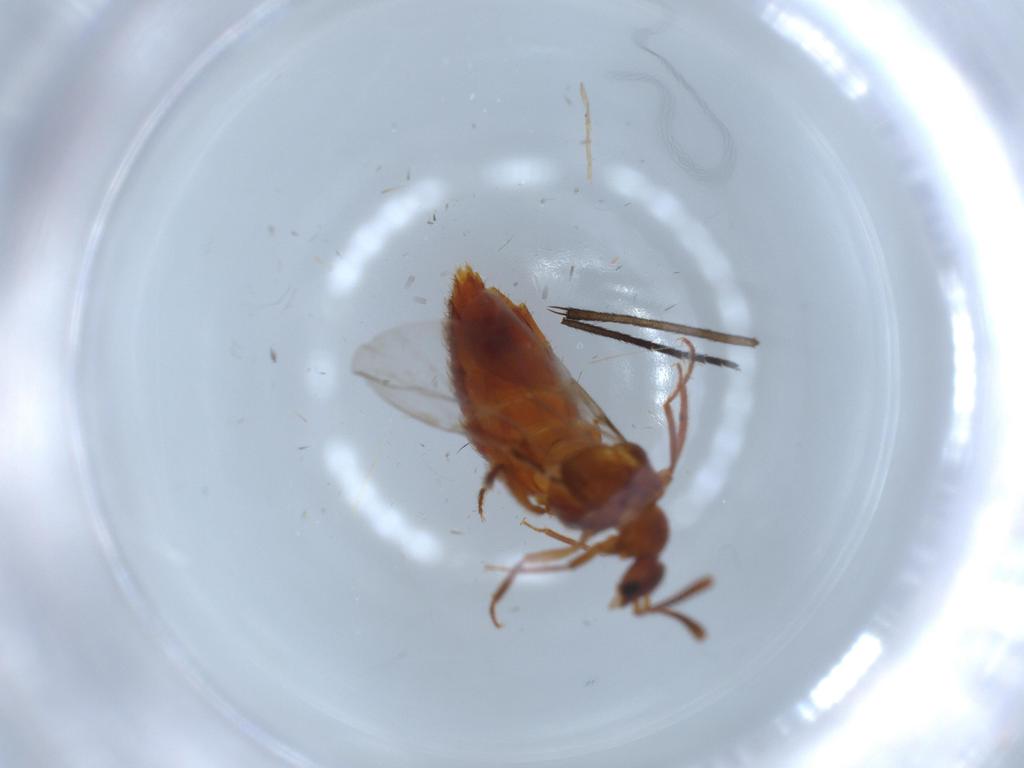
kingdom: Animalia
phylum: Arthropoda
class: Insecta
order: Coleoptera
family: Staphylinidae
